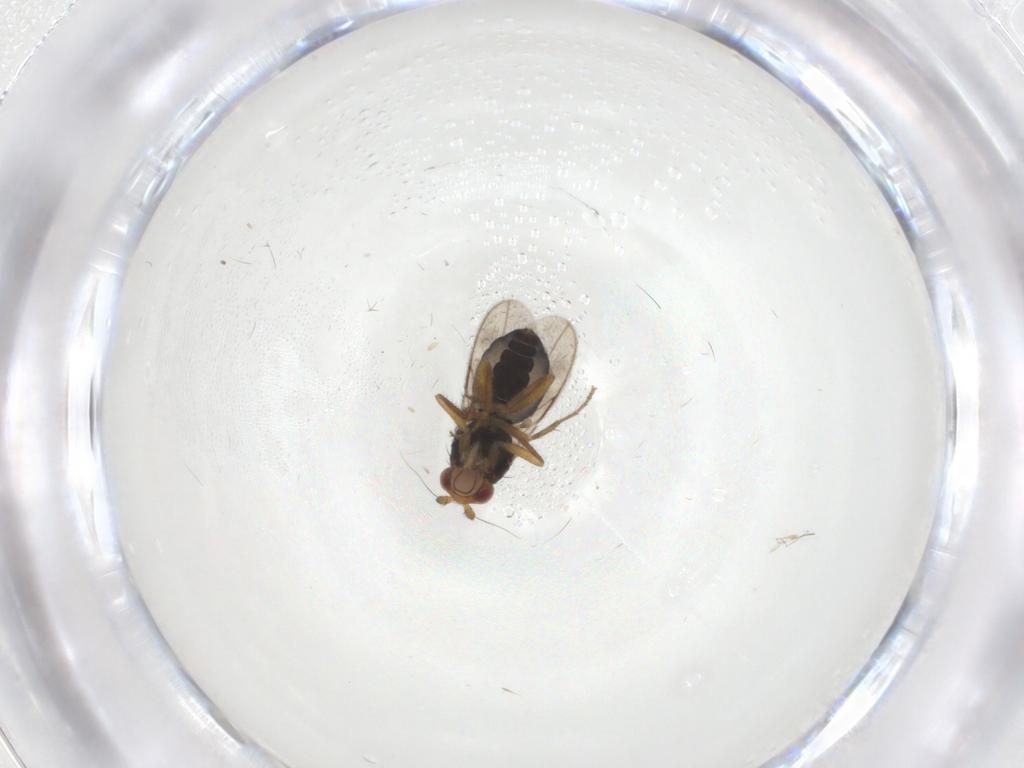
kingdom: Animalia
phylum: Arthropoda
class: Insecta
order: Diptera
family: Sphaeroceridae
